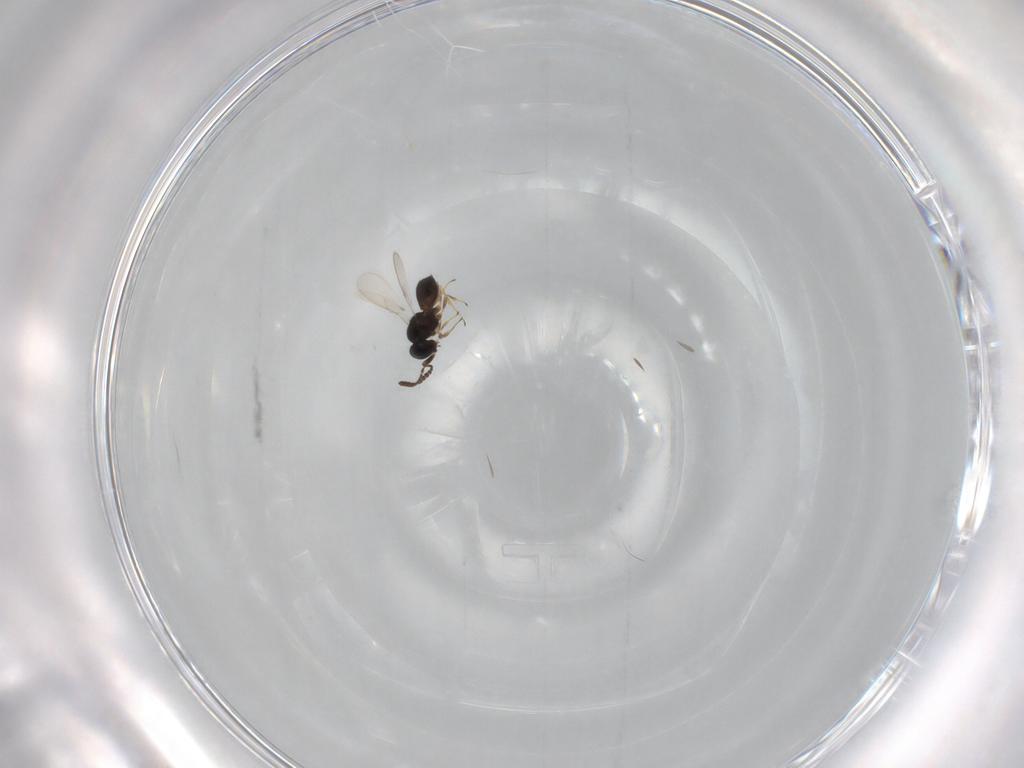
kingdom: Animalia
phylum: Arthropoda
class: Insecta
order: Hymenoptera
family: Scelionidae
